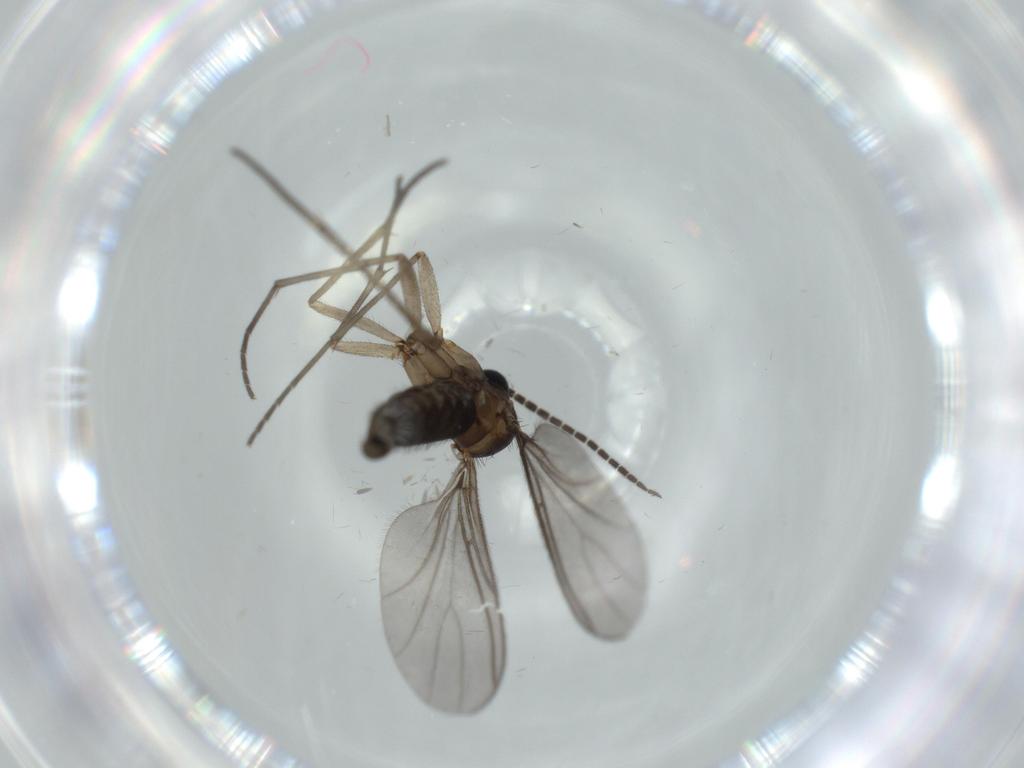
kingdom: Animalia
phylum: Arthropoda
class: Insecta
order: Diptera
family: Sciaridae
